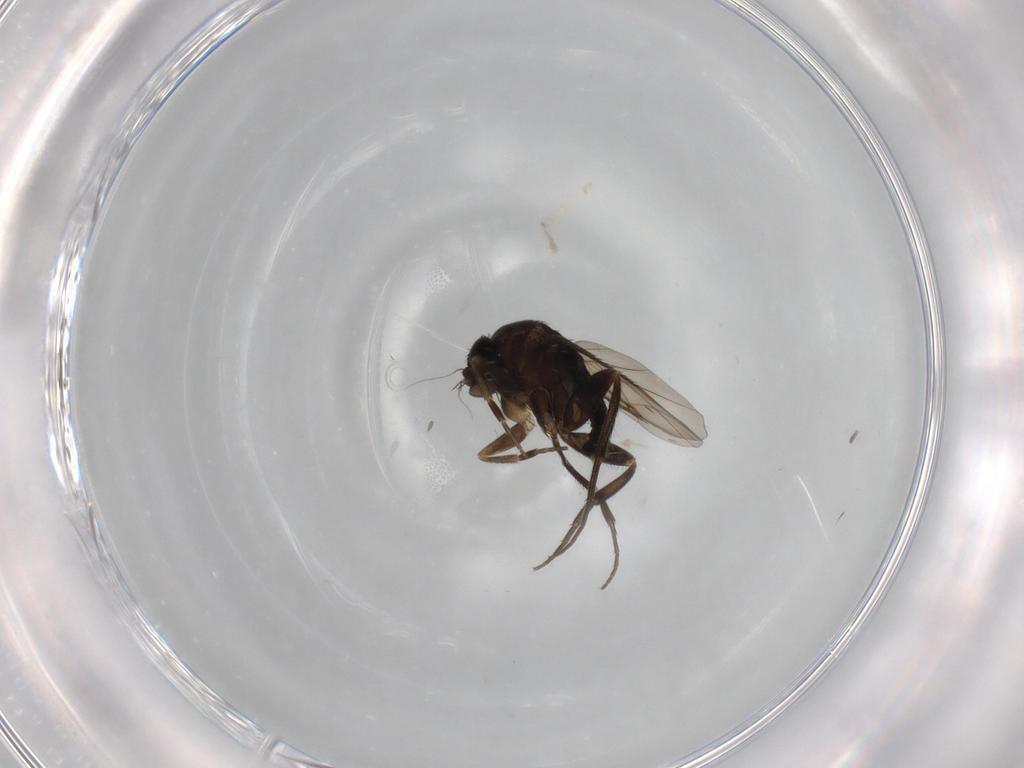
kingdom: Animalia
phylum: Arthropoda
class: Insecta
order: Diptera
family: Phoridae
